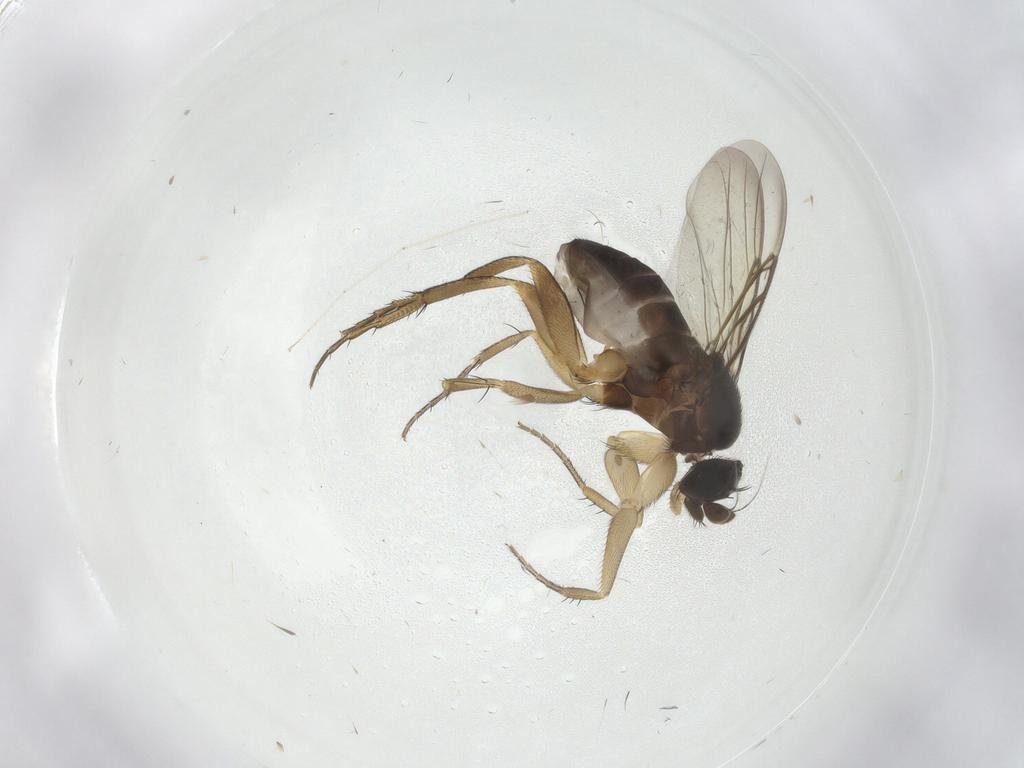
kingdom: Animalia
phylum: Arthropoda
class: Insecta
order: Diptera
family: Phoridae
